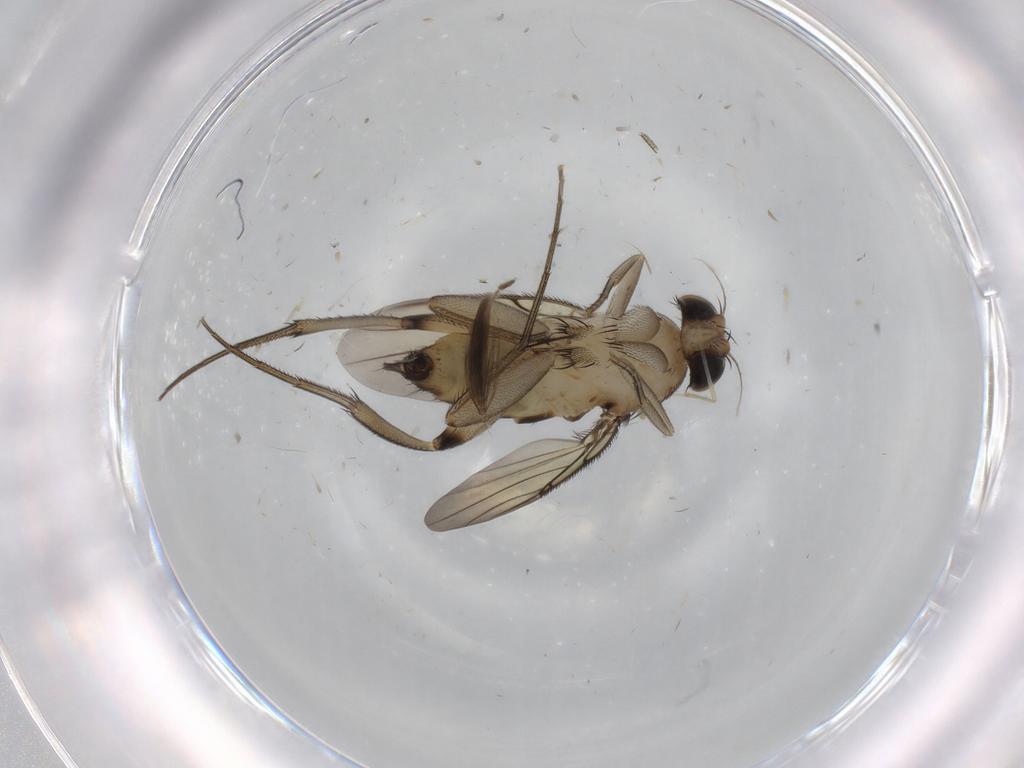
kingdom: Animalia
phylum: Arthropoda
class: Insecta
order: Diptera
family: Phoridae
